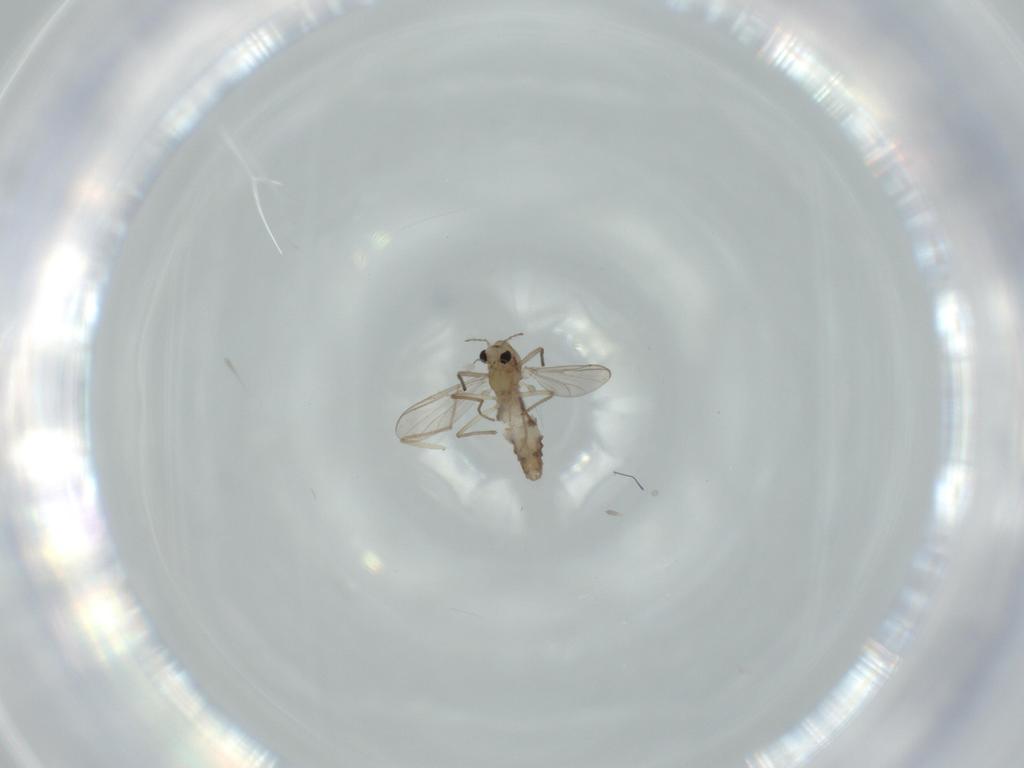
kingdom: Animalia
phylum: Arthropoda
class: Insecta
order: Diptera
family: Chironomidae
